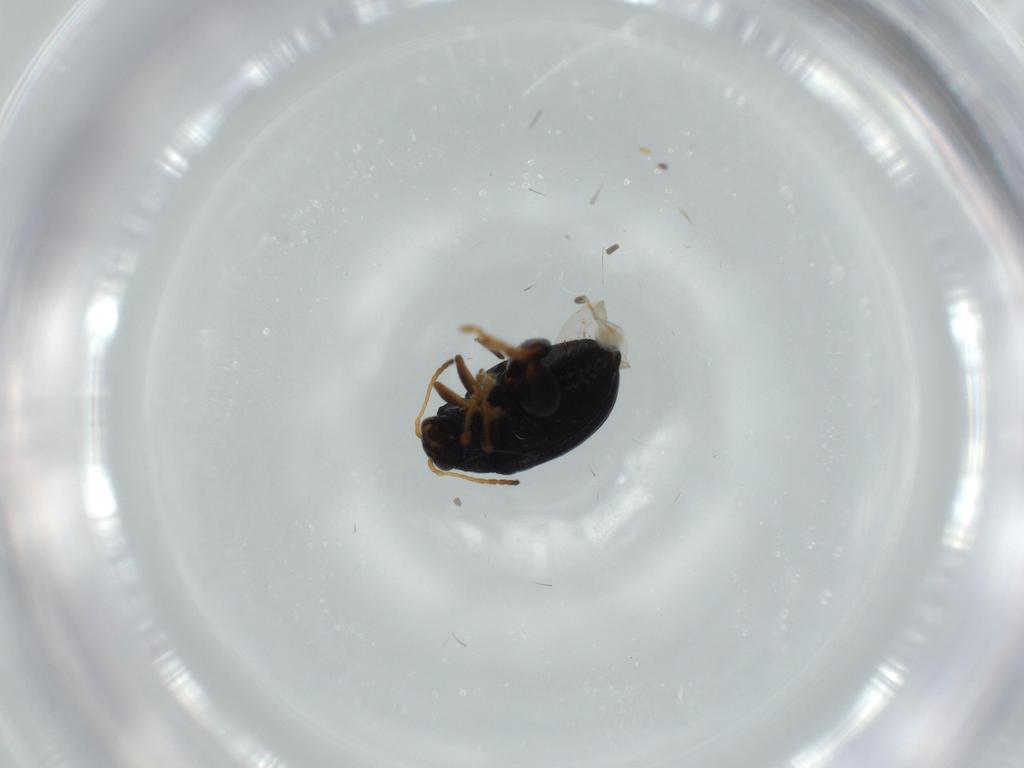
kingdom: Animalia
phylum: Arthropoda
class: Insecta
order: Coleoptera
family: Chrysomelidae
